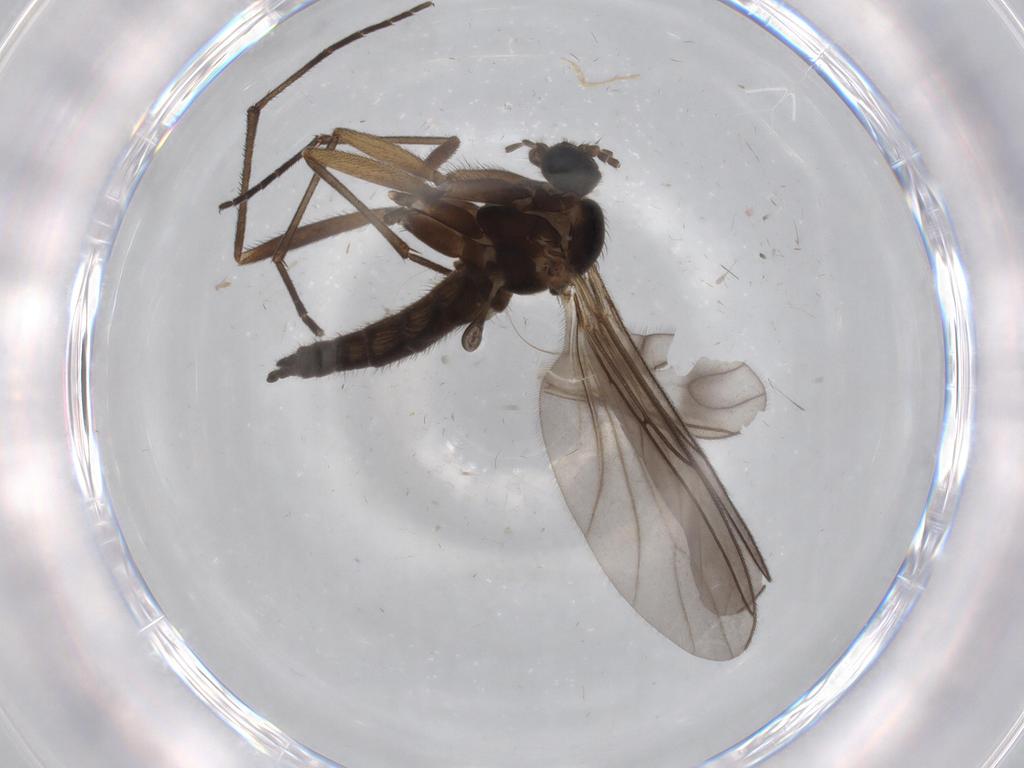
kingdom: Animalia
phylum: Arthropoda
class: Insecta
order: Diptera
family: Sciaridae
